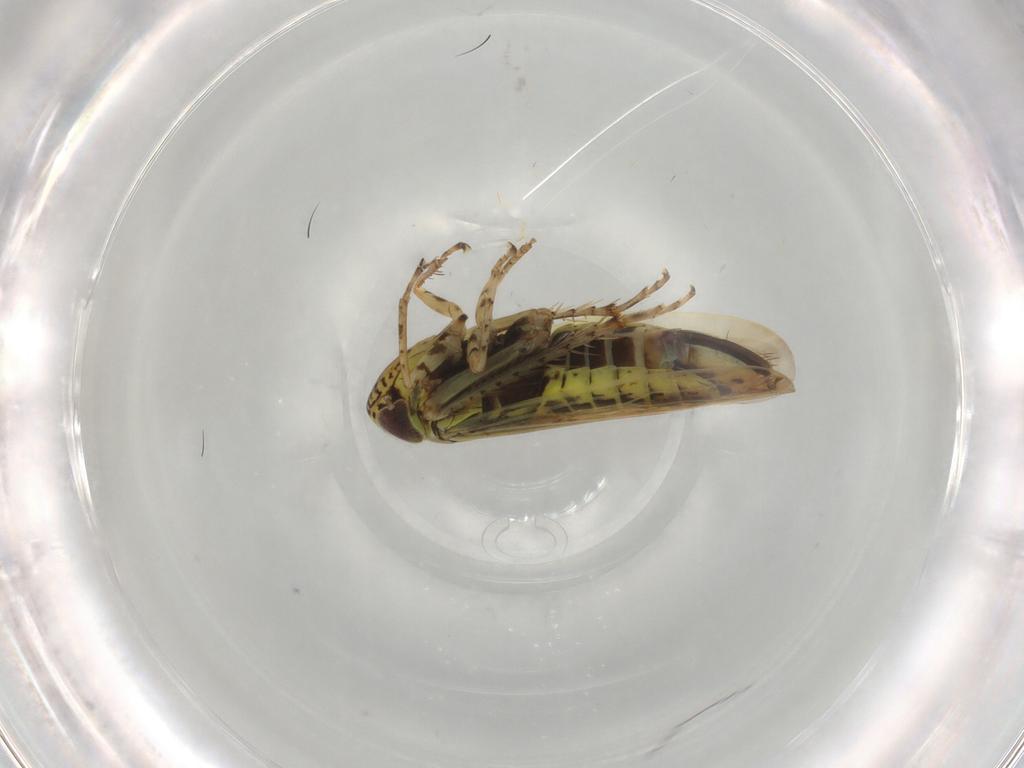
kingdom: Animalia
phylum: Arthropoda
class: Insecta
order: Hemiptera
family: Cicadellidae
